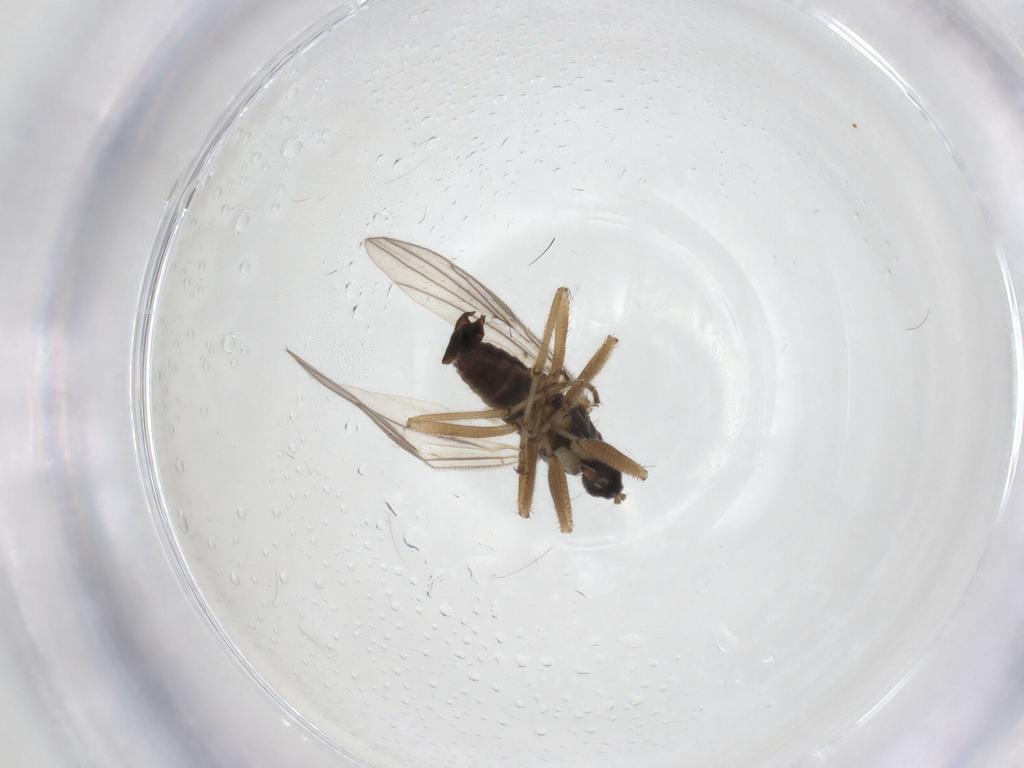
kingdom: Animalia
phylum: Arthropoda
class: Insecta
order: Diptera
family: Hybotidae
